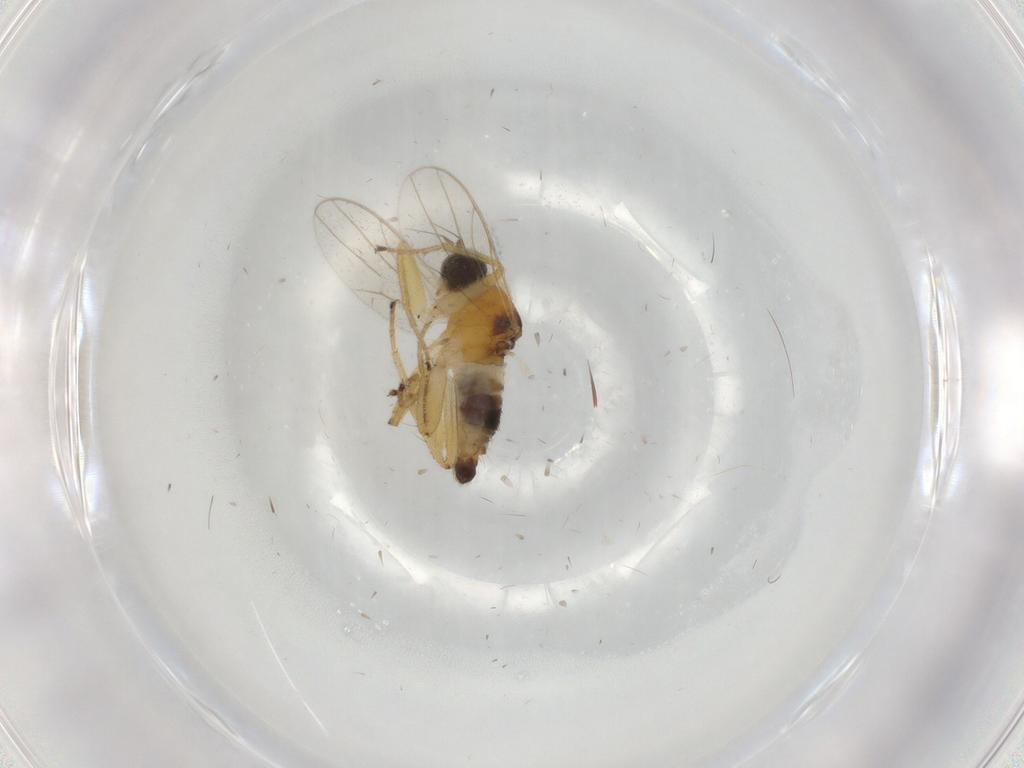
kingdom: Animalia
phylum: Arthropoda
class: Insecta
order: Diptera
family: Hybotidae
